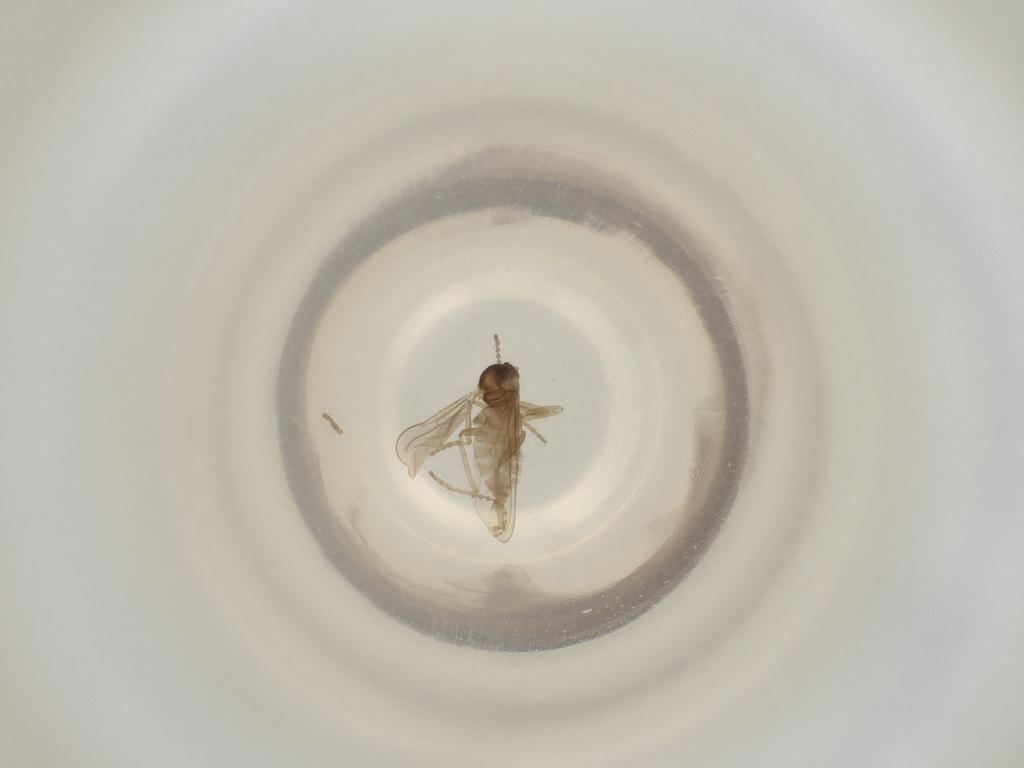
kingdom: Animalia
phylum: Arthropoda
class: Insecta
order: Diptera
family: Cecidomyiidae
